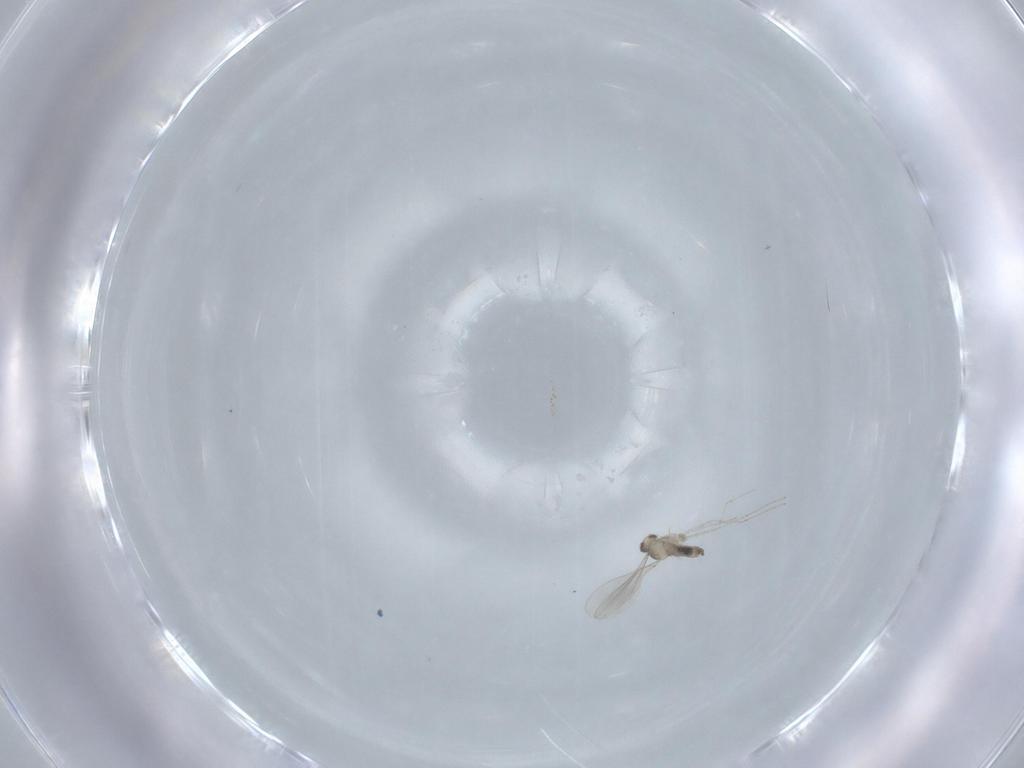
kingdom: Animalia
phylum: Arthropoda
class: Insecta
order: Diptera
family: Cecidomyiidae
